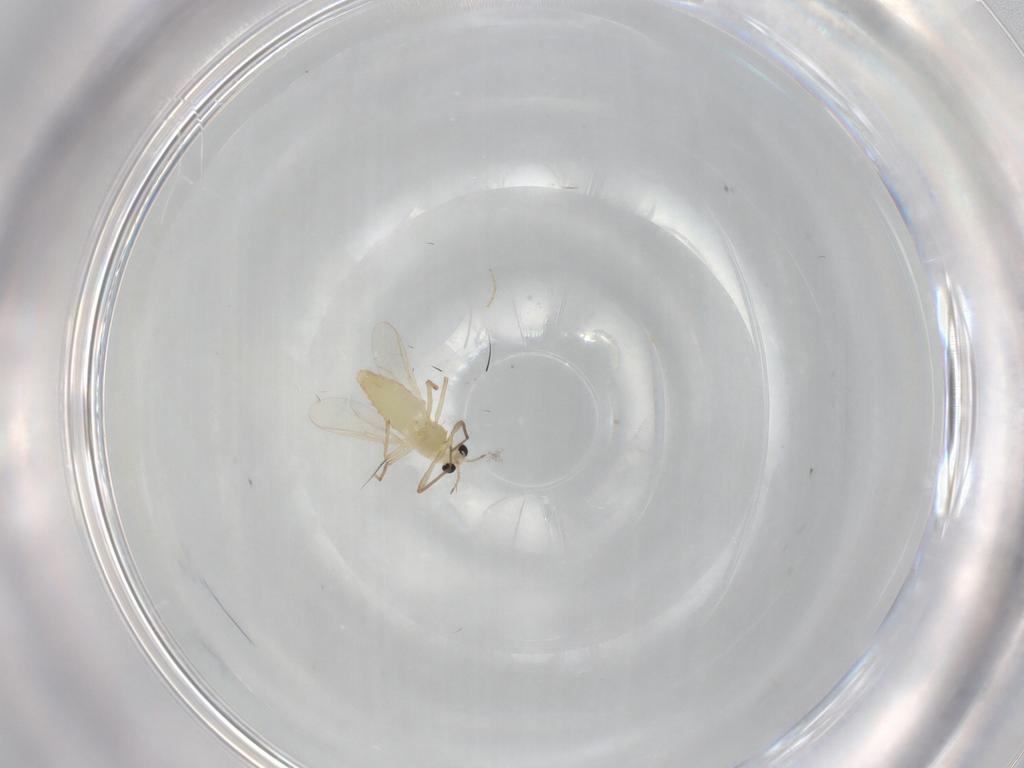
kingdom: Animalia
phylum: Arthropoda
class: Insecta
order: Diptera
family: Chironomidae
